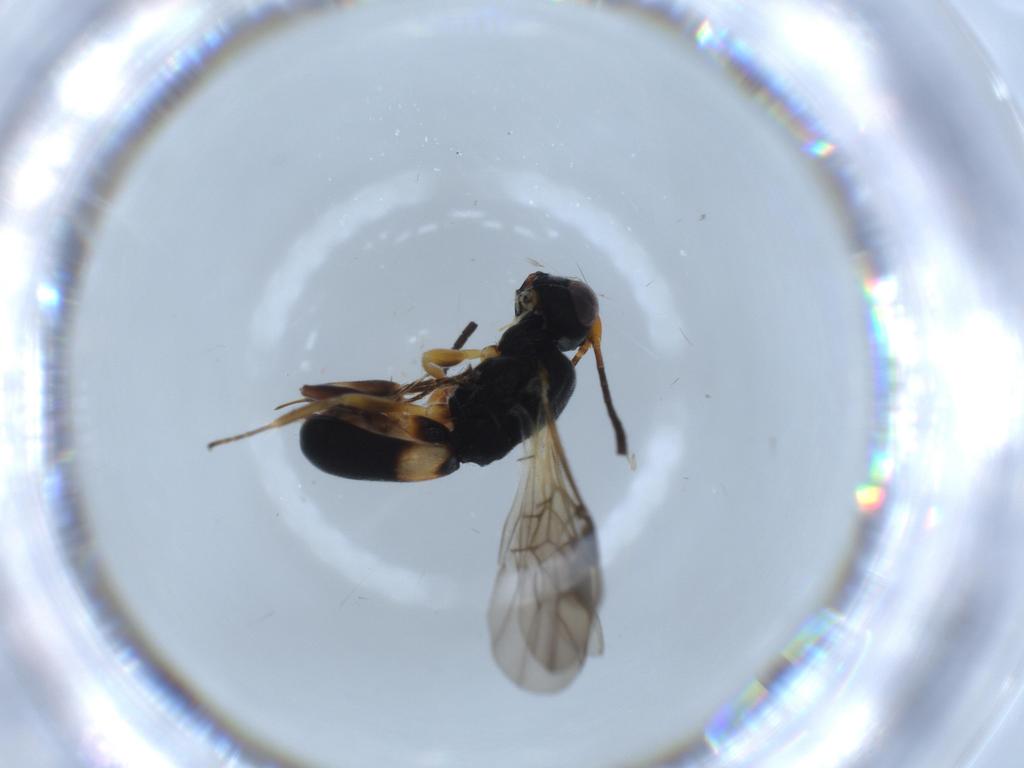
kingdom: Animalia
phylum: Arthropoda
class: Insecta
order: Hymenoptera
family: Braconidae
